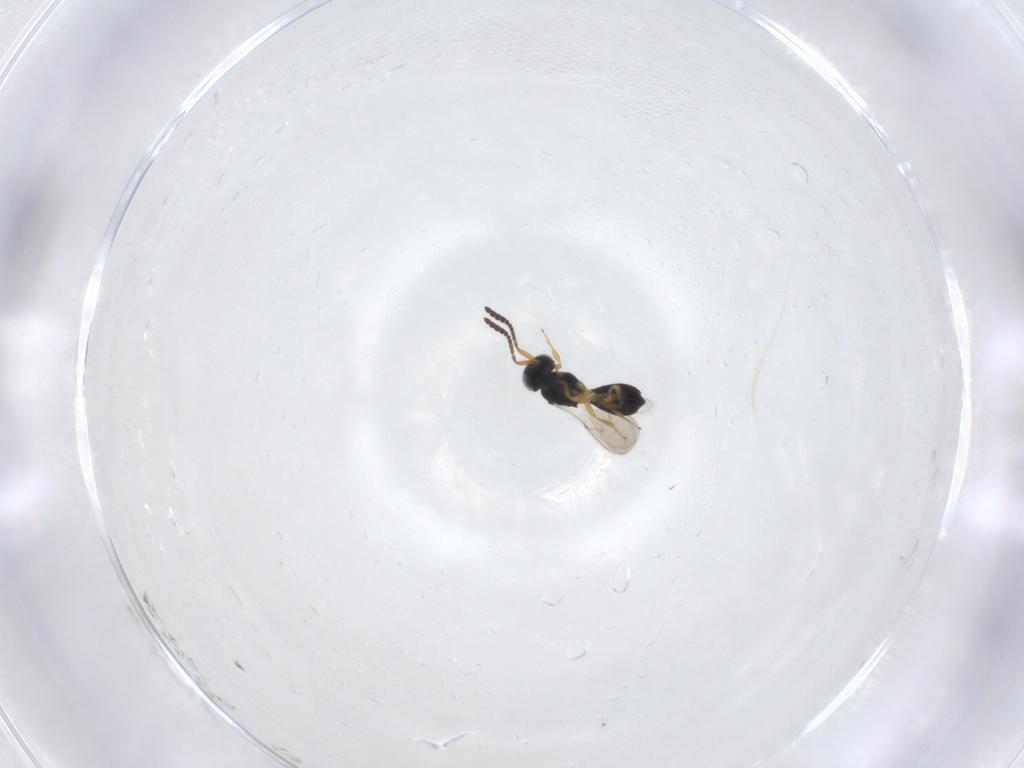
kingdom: Animalia
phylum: Arthropoda
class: Insecta
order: Hymenoptera
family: Scelionidae
